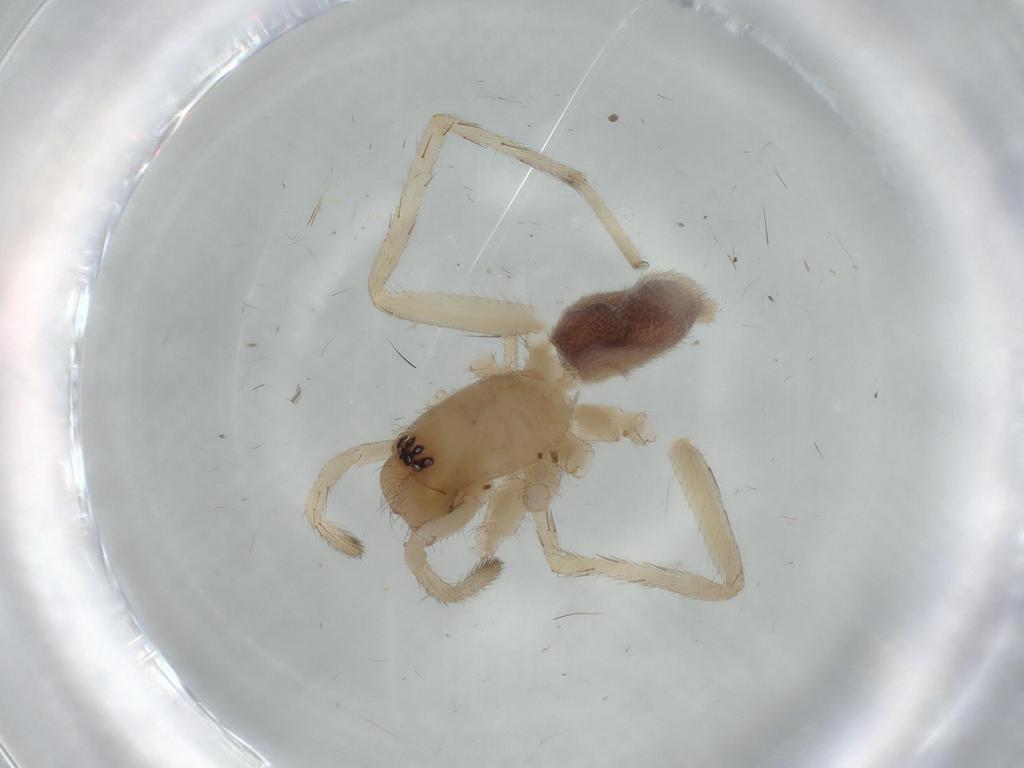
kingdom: Animalia
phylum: Arthropoda
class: Arachnida
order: Araneae
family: Corinnidae
